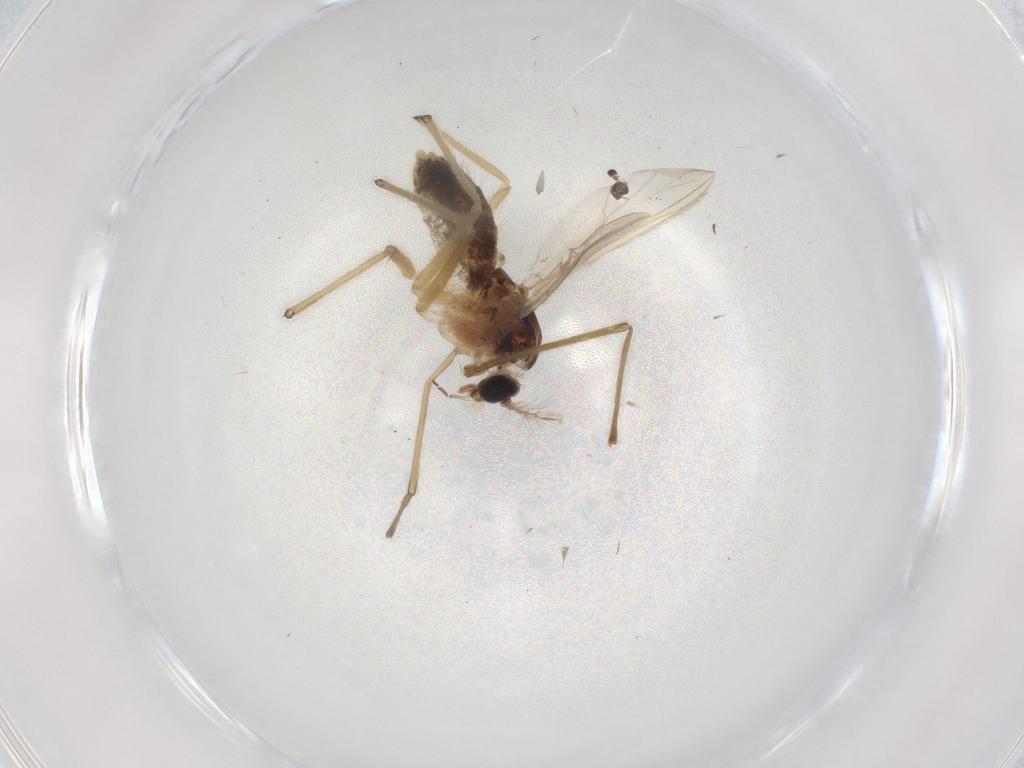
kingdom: Animalia
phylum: Arthropoda
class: Insecta
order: Diptera
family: Chironomidae
